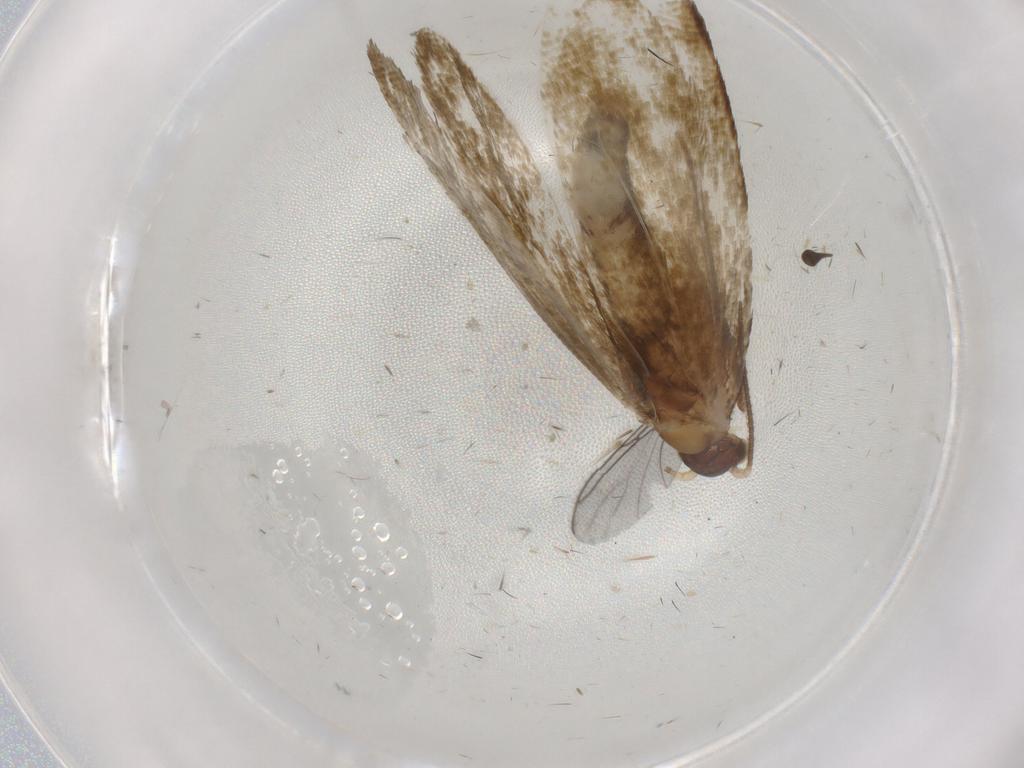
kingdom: Animalia
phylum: Arthropoda
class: Insecta
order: Lepidoptera
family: Tineidae
